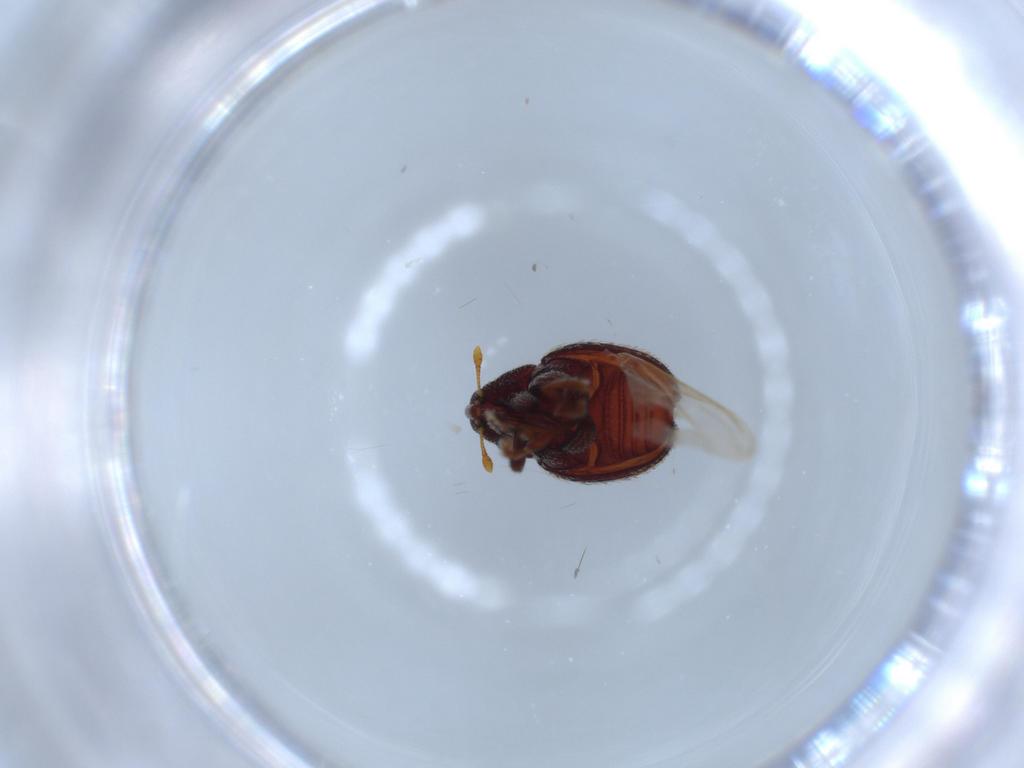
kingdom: Animalia
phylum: Arthropoda
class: Insecta
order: Coleoptera
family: Curculionidae
